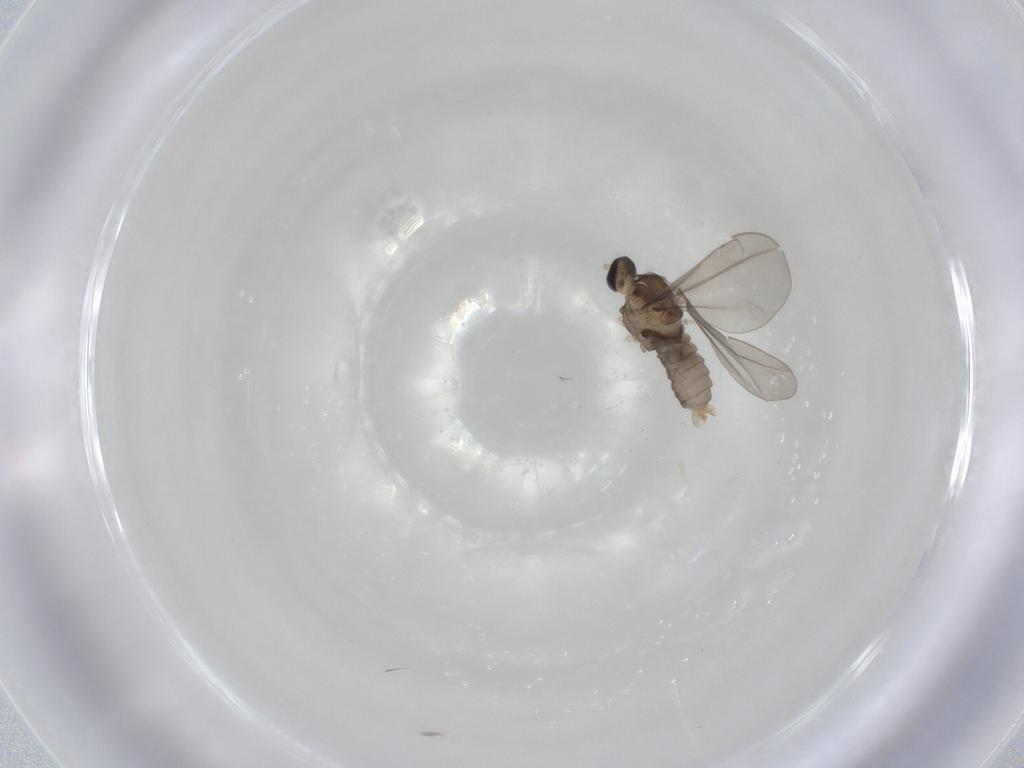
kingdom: Animalia
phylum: Arthropoda
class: Insecta
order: Diptera
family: Cecidomyiidae
